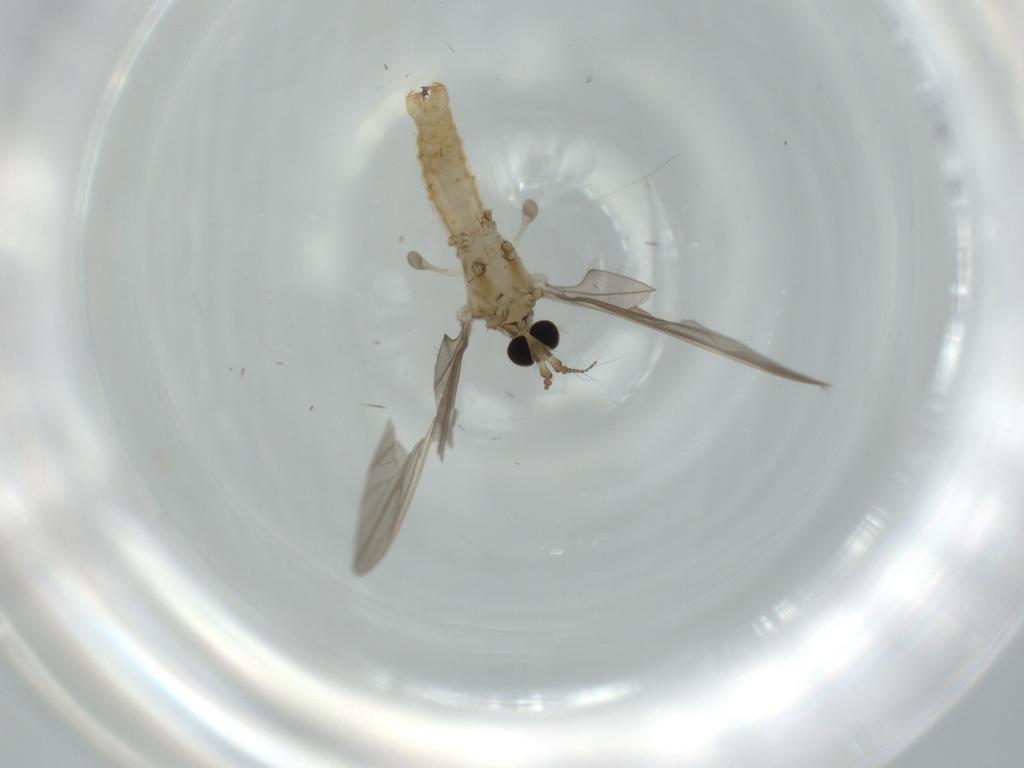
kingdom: Animalia
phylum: Arthropoda
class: Insecta
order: Diptera
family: Limoniidae
